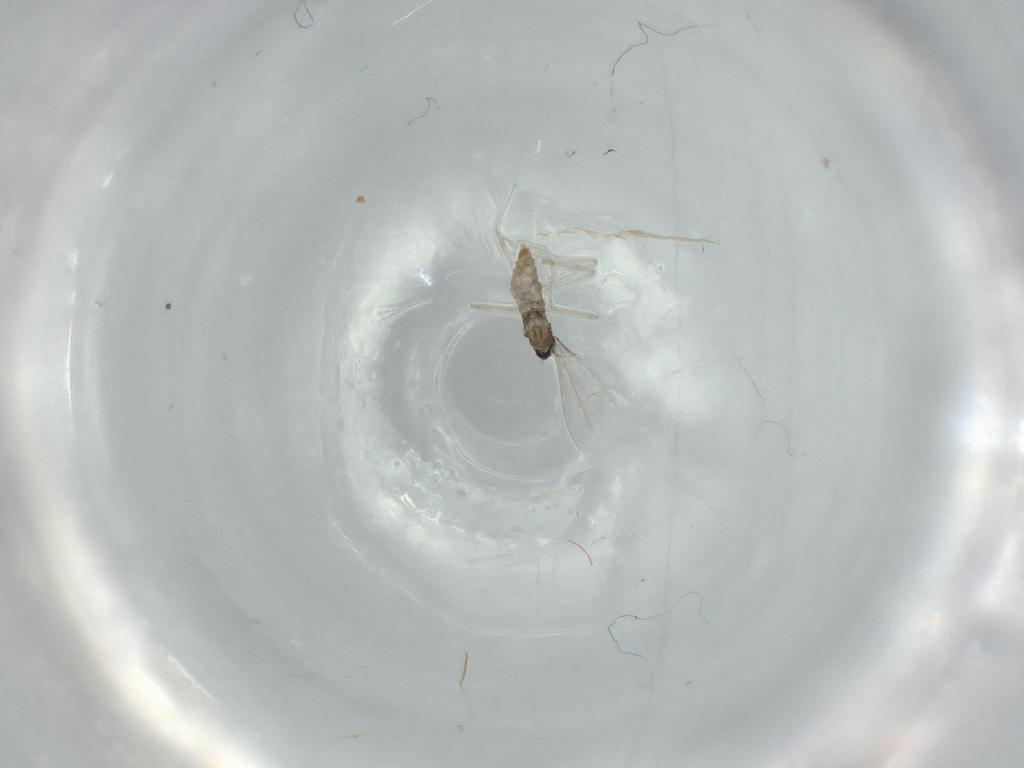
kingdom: Animalia
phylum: Arthropoda
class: Insecta
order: Diptera
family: Cecidomyiidae
